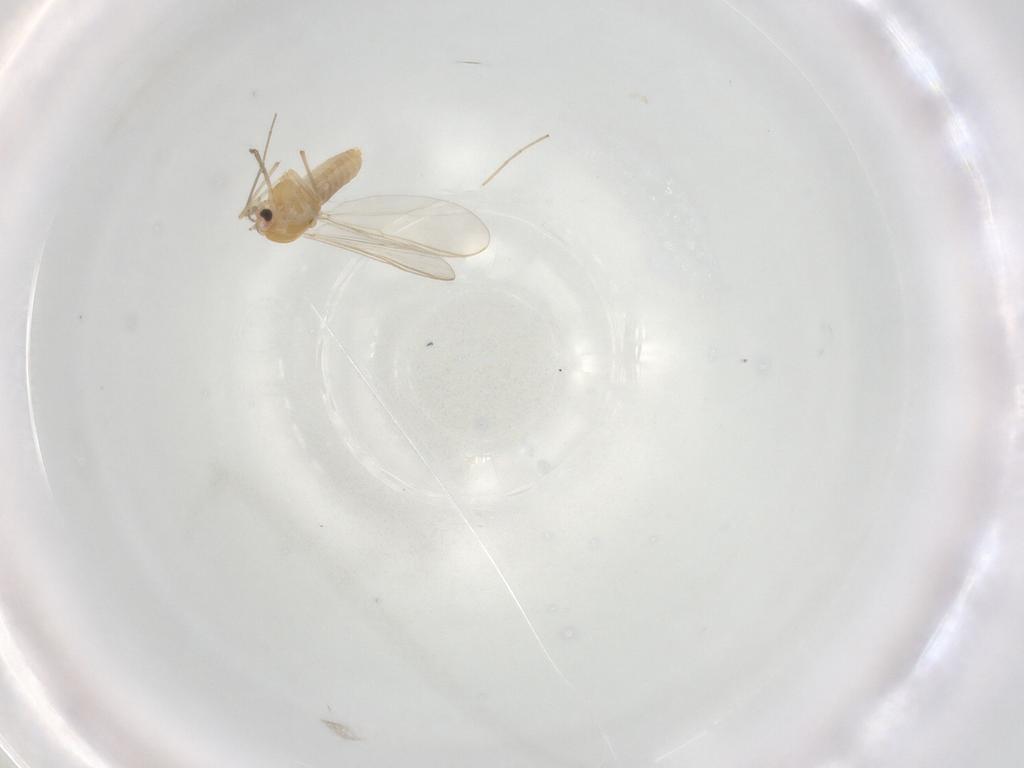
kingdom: Animalia
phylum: Arthropoda
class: Insecta
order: Diptera
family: Chironomidae
